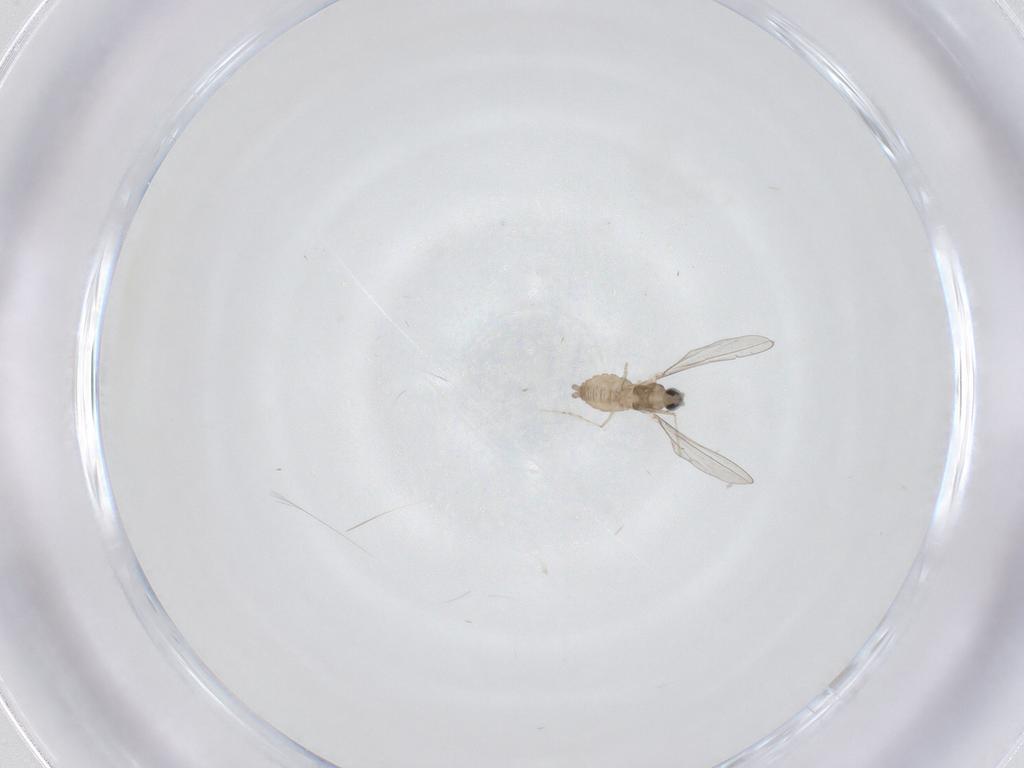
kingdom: Animalia
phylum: Arthropoda
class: Insecta
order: Diptera
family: Cecidomyiidae
